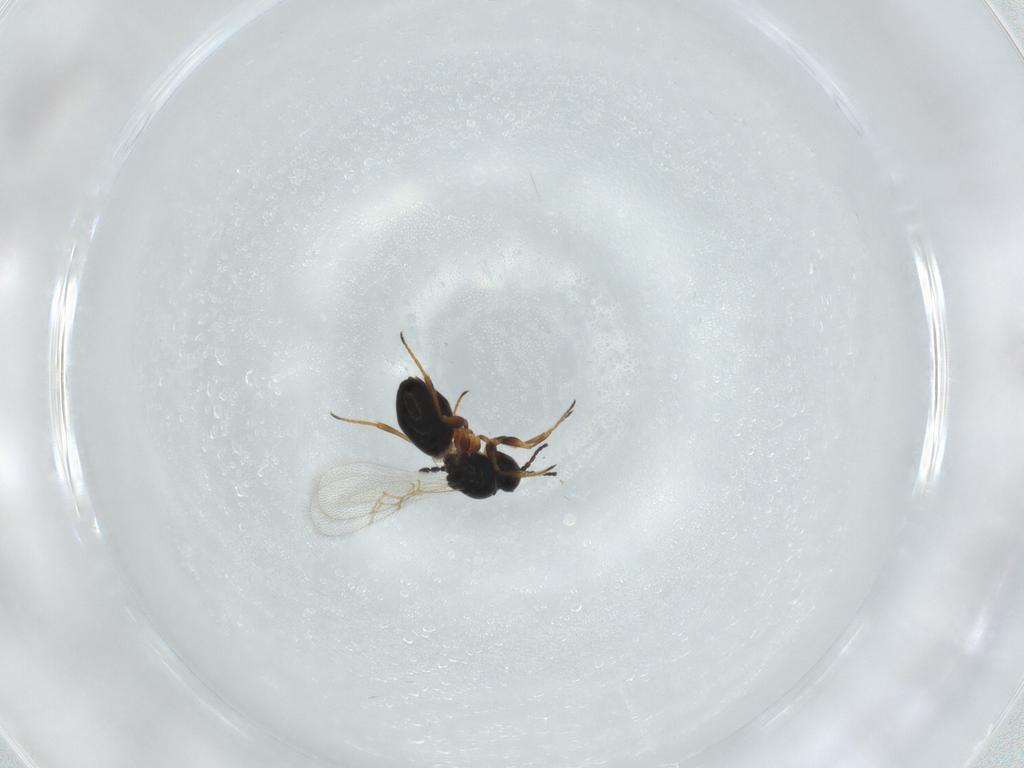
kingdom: Animalia
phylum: Arthropoda
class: Insecta
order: Hymenoptera
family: Figitidae
